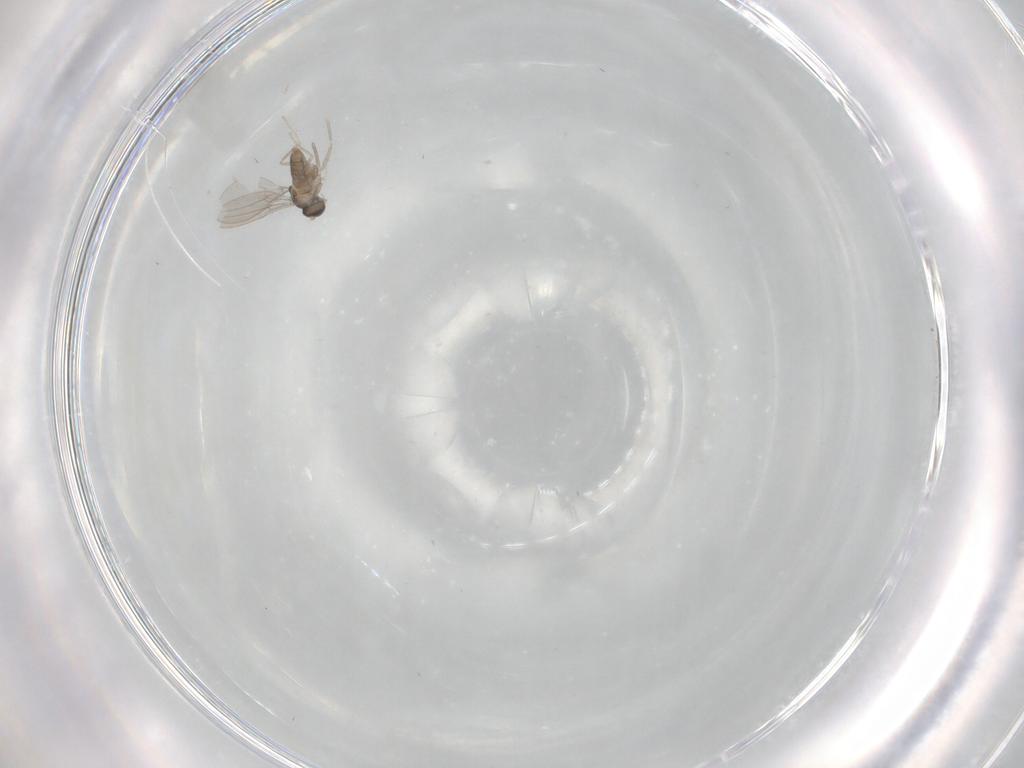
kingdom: Animalia
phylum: Arthropoda
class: Insecta
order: Diptera
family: Cecidomyiidae
